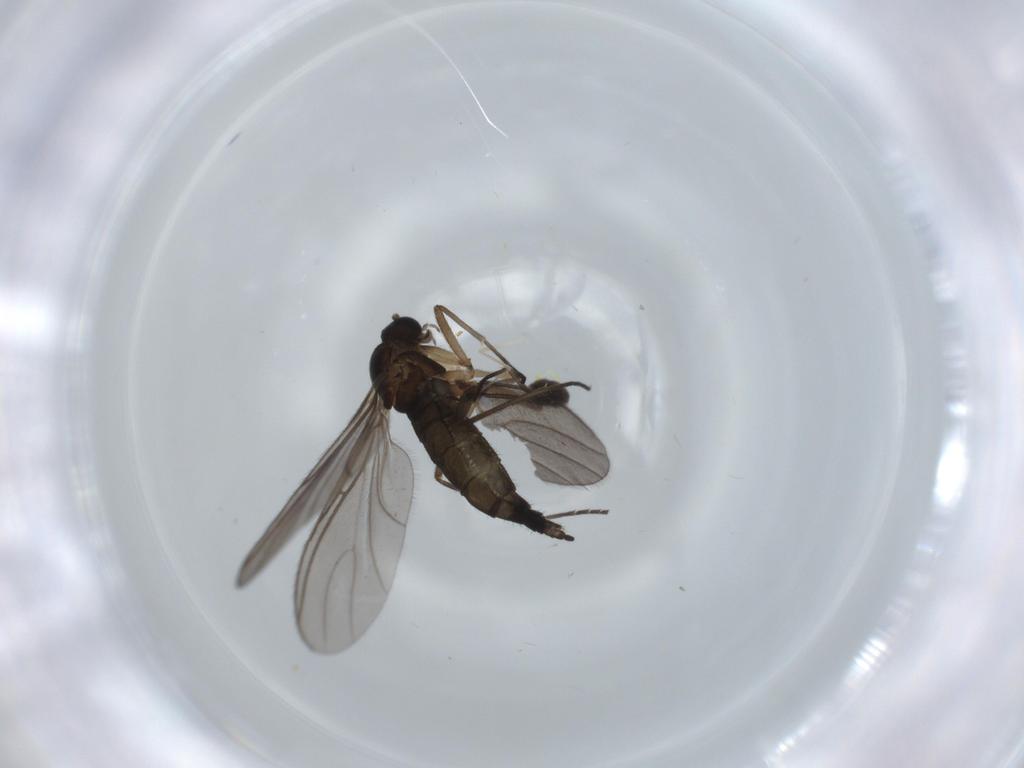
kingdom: Animalia
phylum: Arthropoda
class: Insecta
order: Diptera
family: Sciaridae
